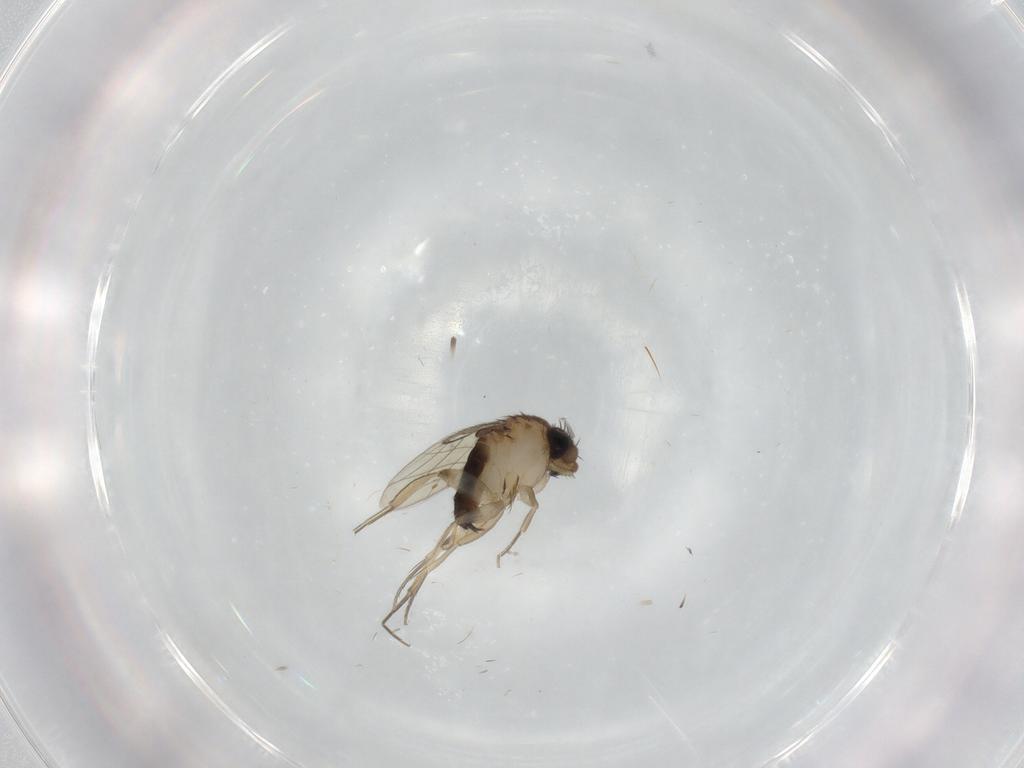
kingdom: Animalia
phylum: Arthropoda
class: Insecta
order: Diptera
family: Phoridae
